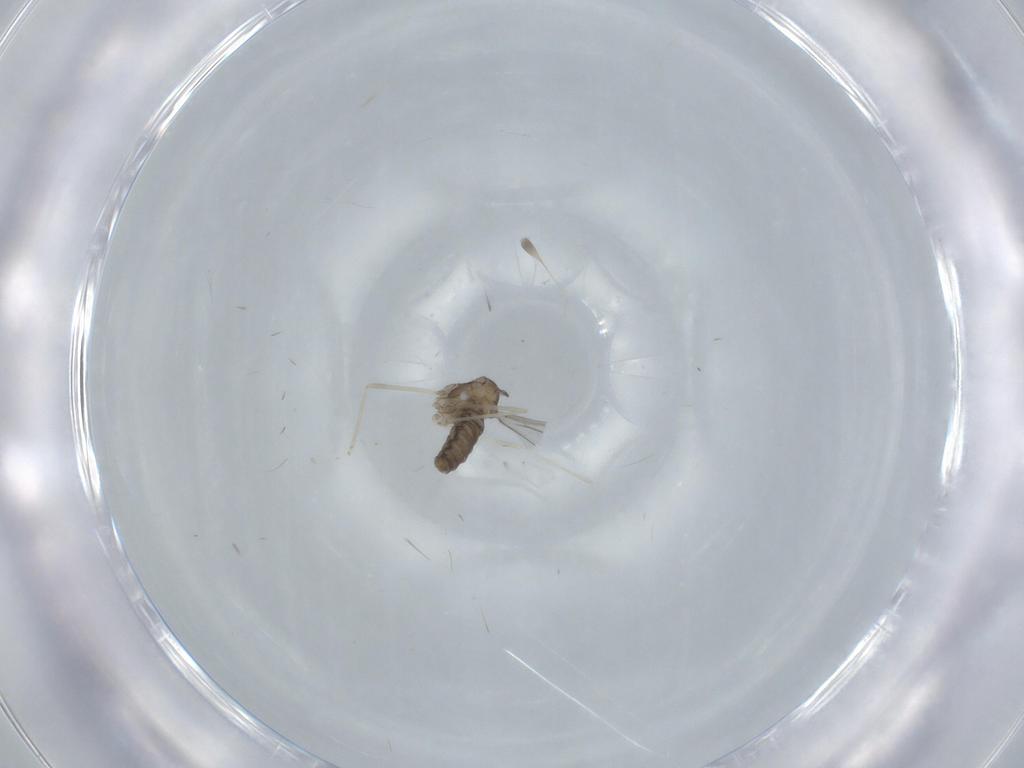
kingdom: Animalia
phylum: Arthropoda
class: Insecta
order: Diptera
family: Cecidomyiidae
